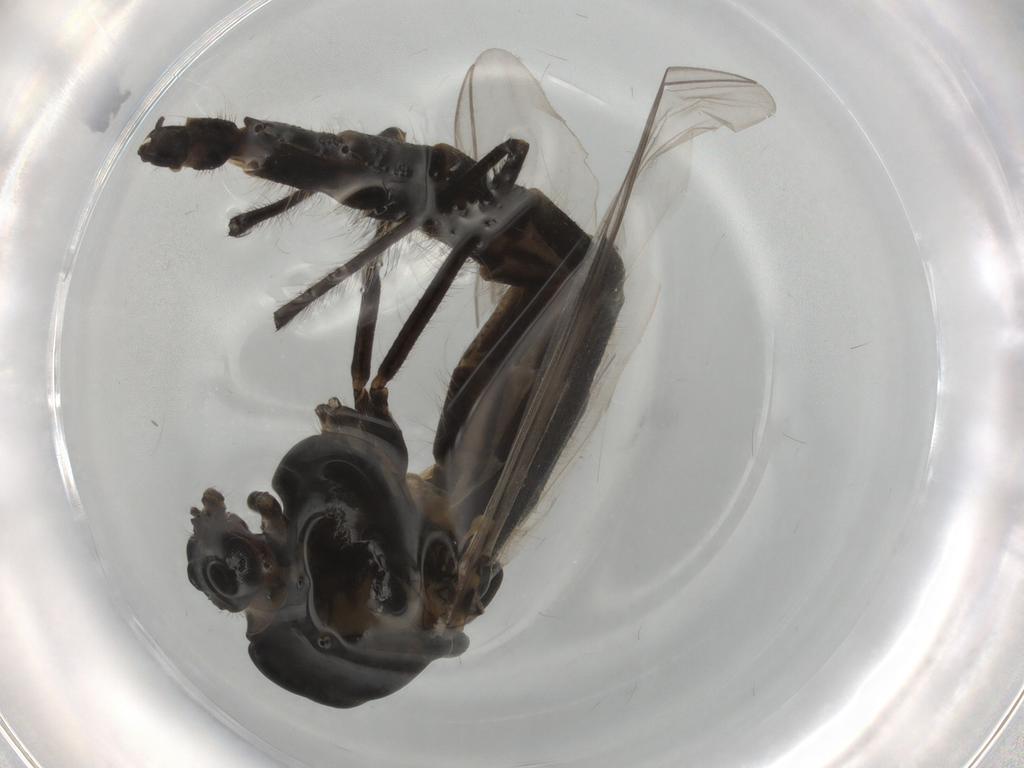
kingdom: Animalia
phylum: Arthropoda
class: Insecta
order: Diptera
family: Chironomidae
